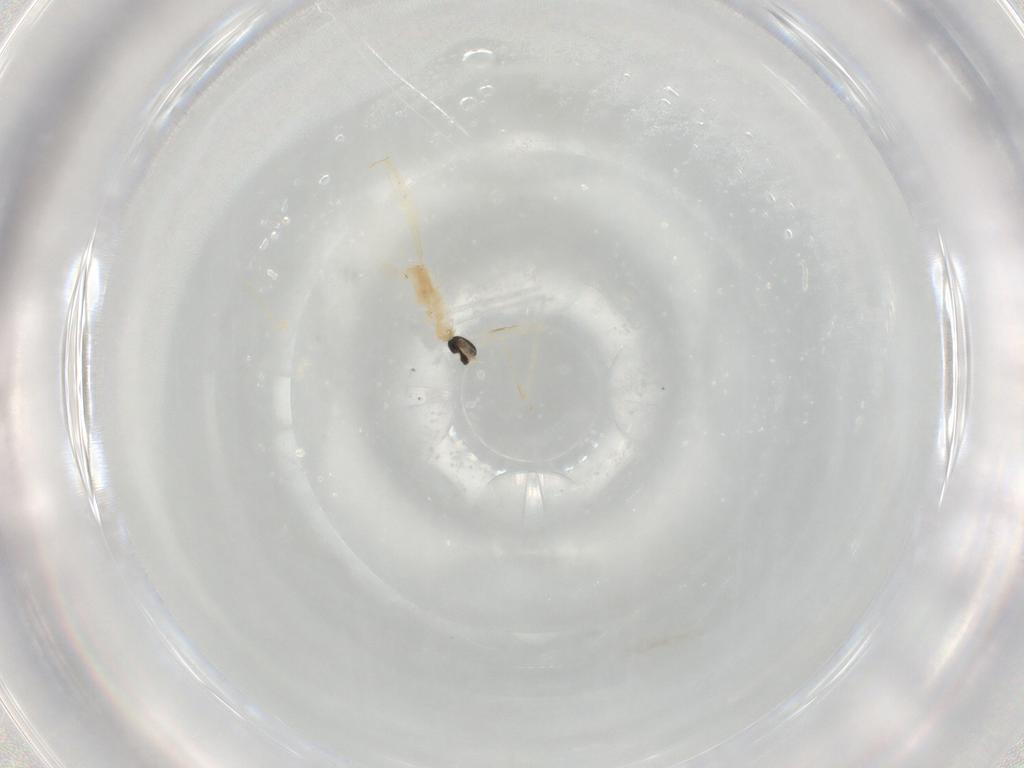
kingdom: Animalia
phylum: Arthropoda
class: Insecta
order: Diptera
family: Cecidomyiidae
